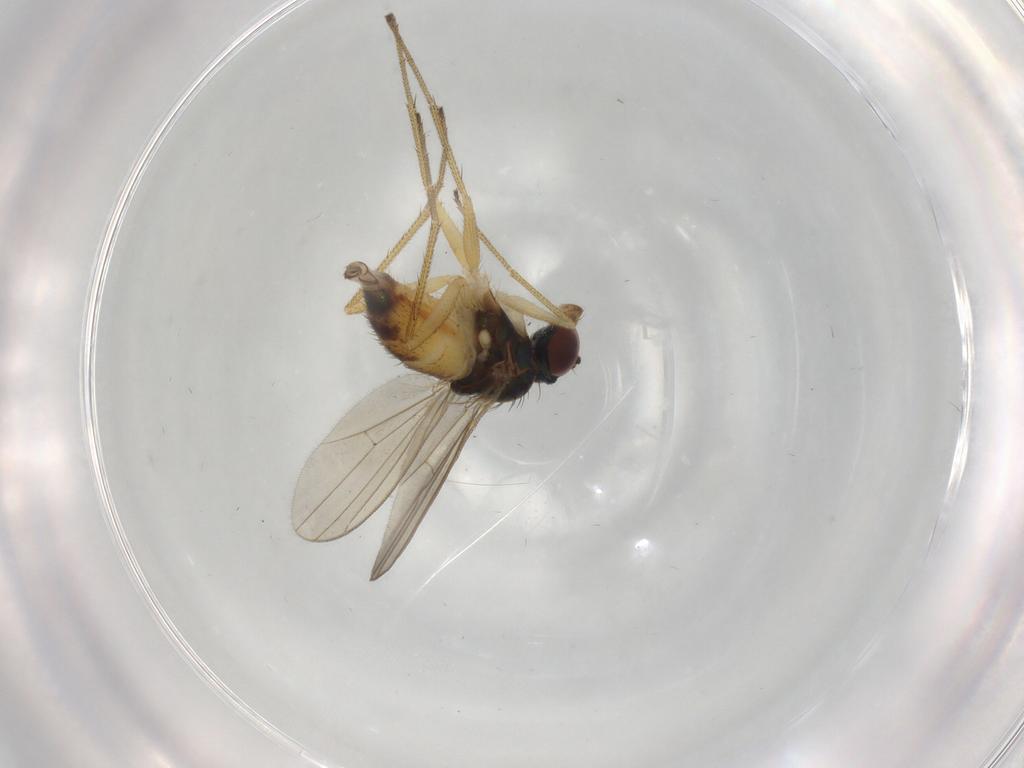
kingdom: Animalia
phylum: Arthropoda
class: Insecta
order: Diptera
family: Dolichopodidae
